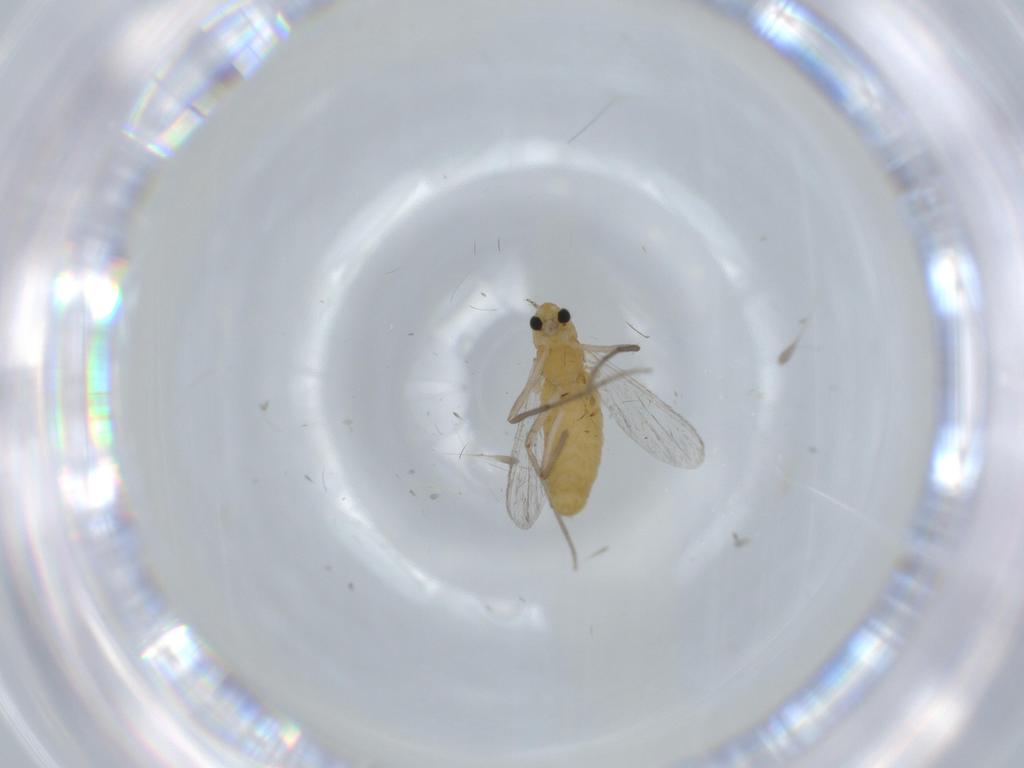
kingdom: Animalia
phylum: Arthropoda
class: Insecta
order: Diptera
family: Chironomidae
